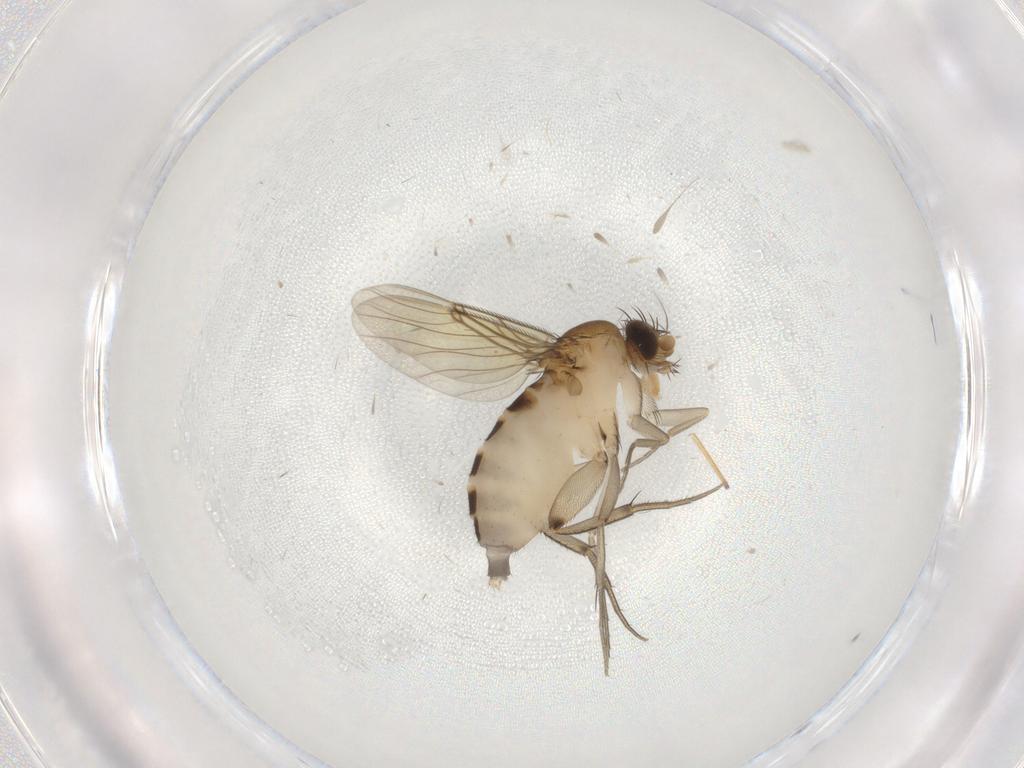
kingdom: Animalia
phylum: Arthropoda
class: Insecta
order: Diptera
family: Phoridae
